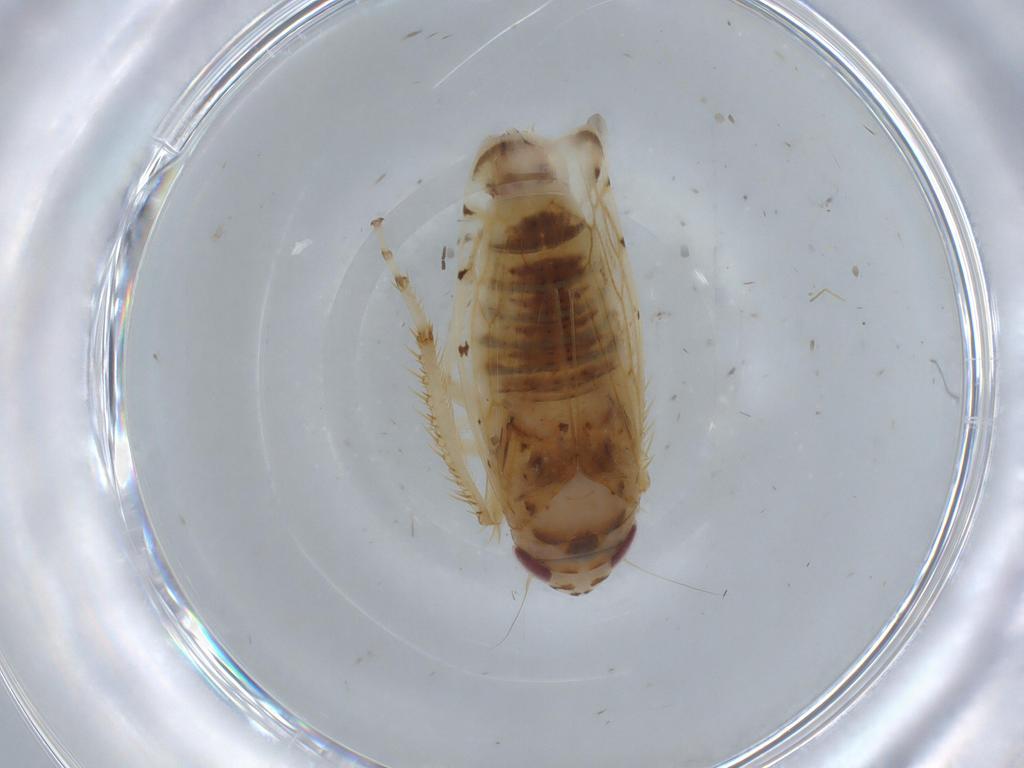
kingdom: Animalia
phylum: Arthropoda
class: Insecta
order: Hemiptera
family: Cicadellidae
